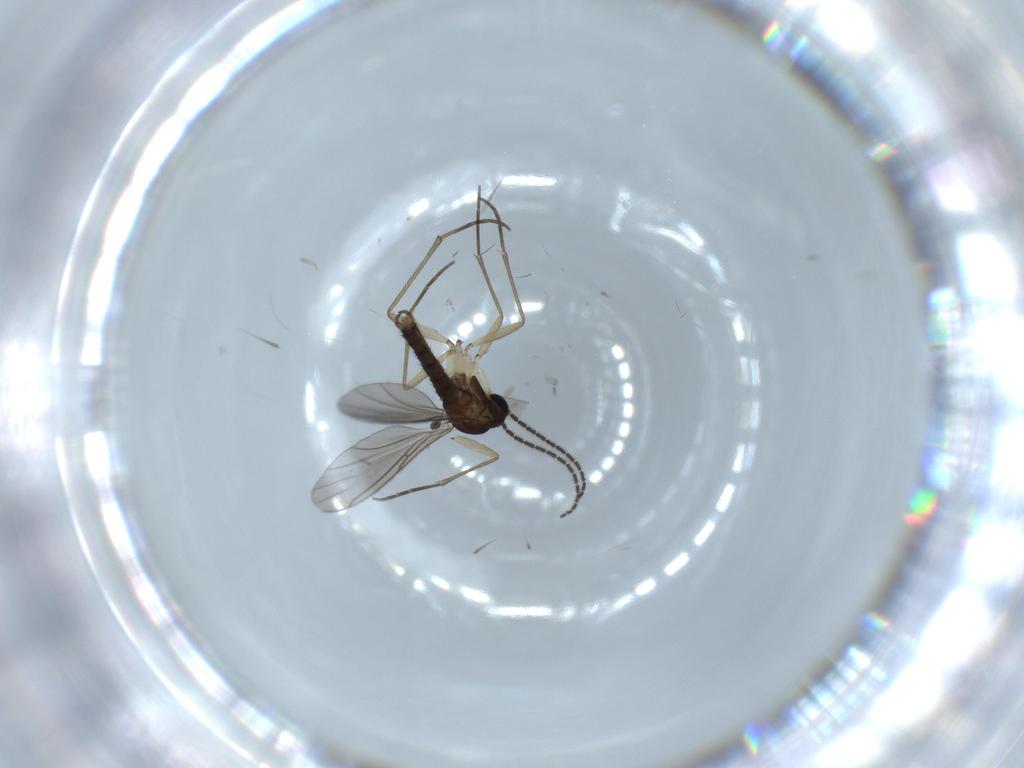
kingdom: Animalia
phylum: Arthropoda
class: Insecta
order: Diptera
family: Sciaridae
